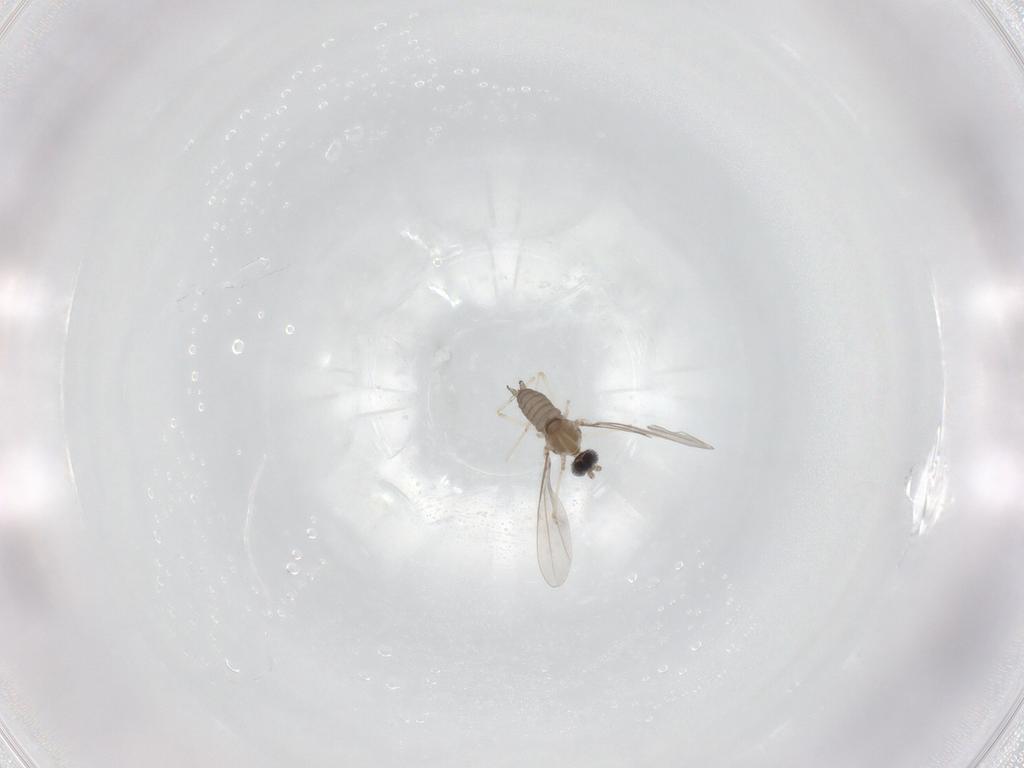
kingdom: Animalia
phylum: Arthropoda
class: Insecta
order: Diptera
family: Cecidomyiidae
